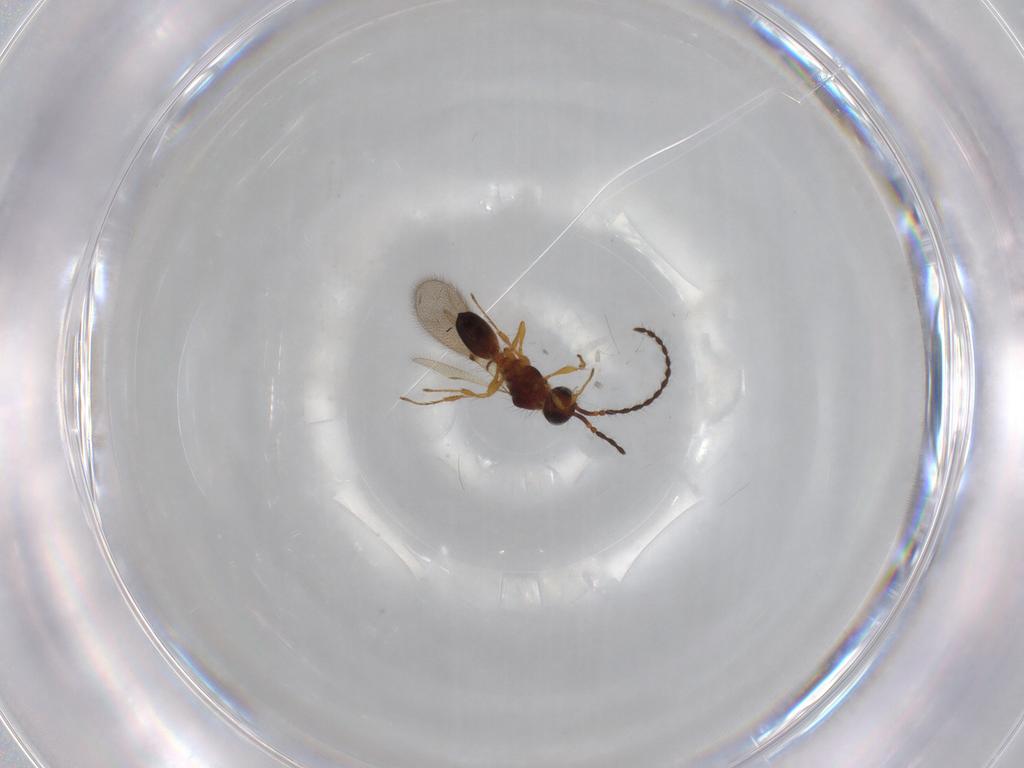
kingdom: Animalia
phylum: Arthropoda
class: Insecta
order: Hymenoptera
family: Diapriidae
